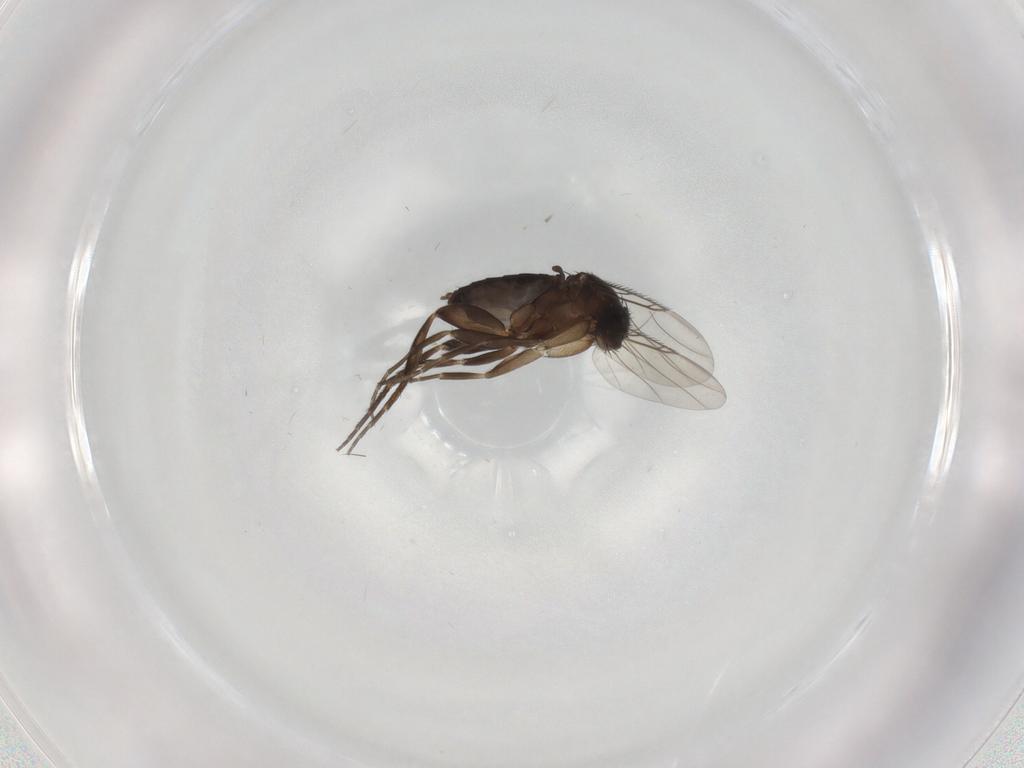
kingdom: Animalia
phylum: Arthropoda
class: Insecta
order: Diptera
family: Phoridae
